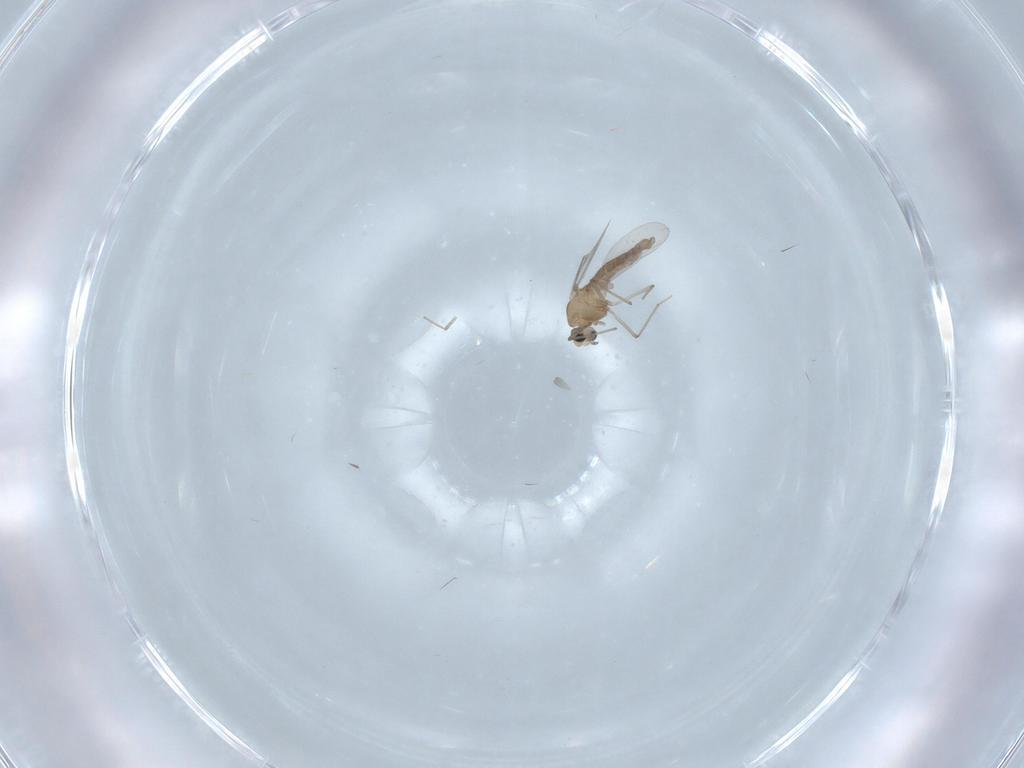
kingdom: Animalia
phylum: Arthropoda
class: Insecta
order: Diptera
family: Chironomidae
